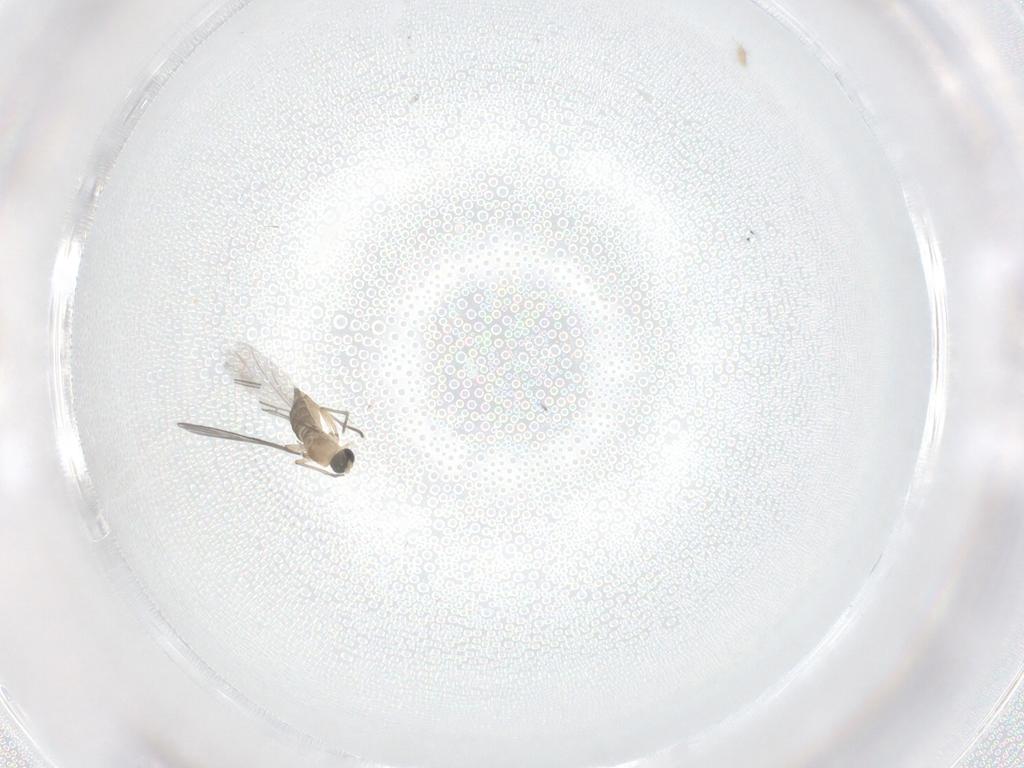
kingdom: Animalia
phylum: Arthropoda
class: Insecta
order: Diptera
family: Sciaridae
